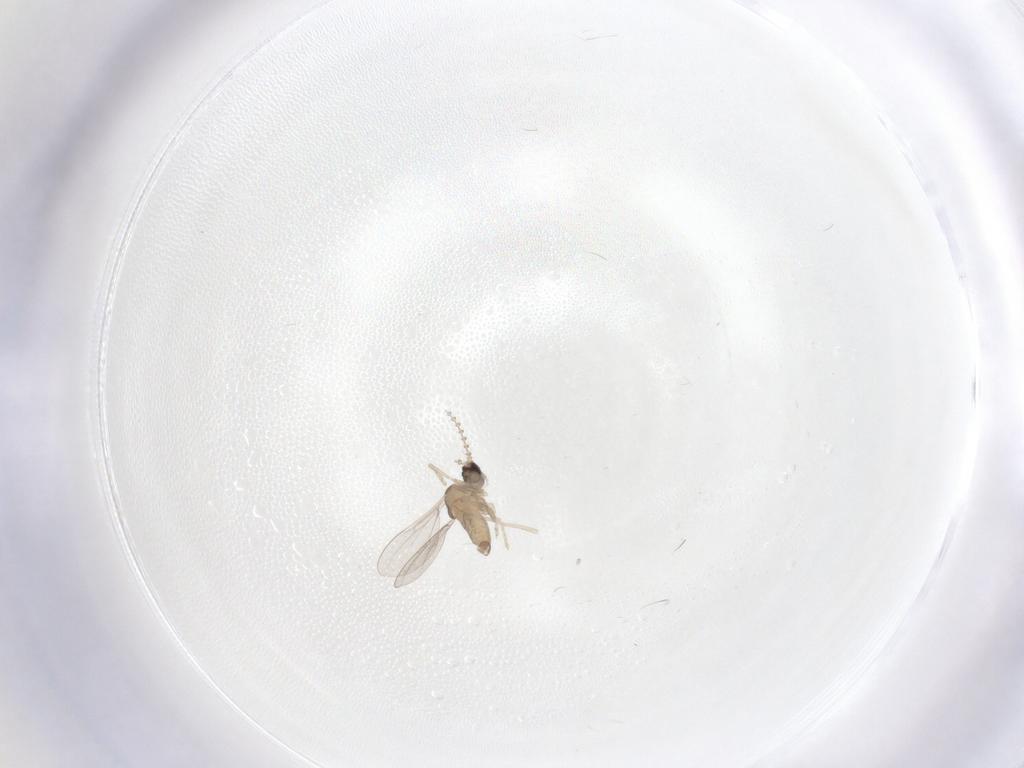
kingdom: Animalia
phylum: Arthropoda
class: Insecta
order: Diptera
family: Cecidomyiidae
